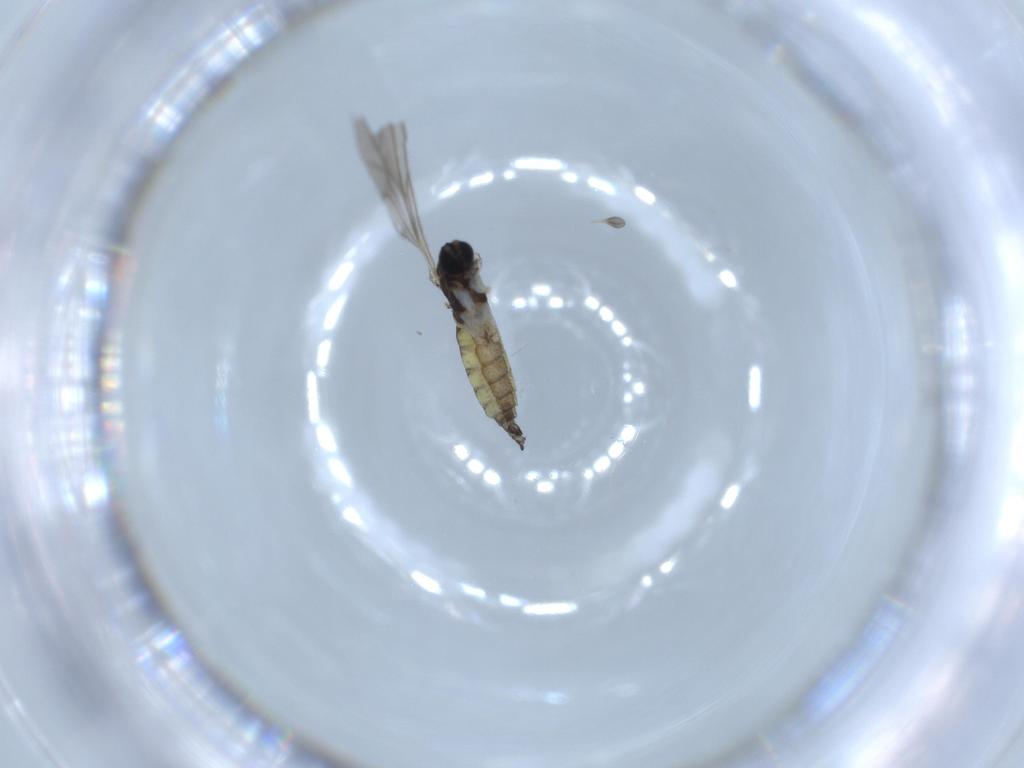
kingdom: Animalia
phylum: Arthropoda
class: Insecta
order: Diptera
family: Sciaridae
